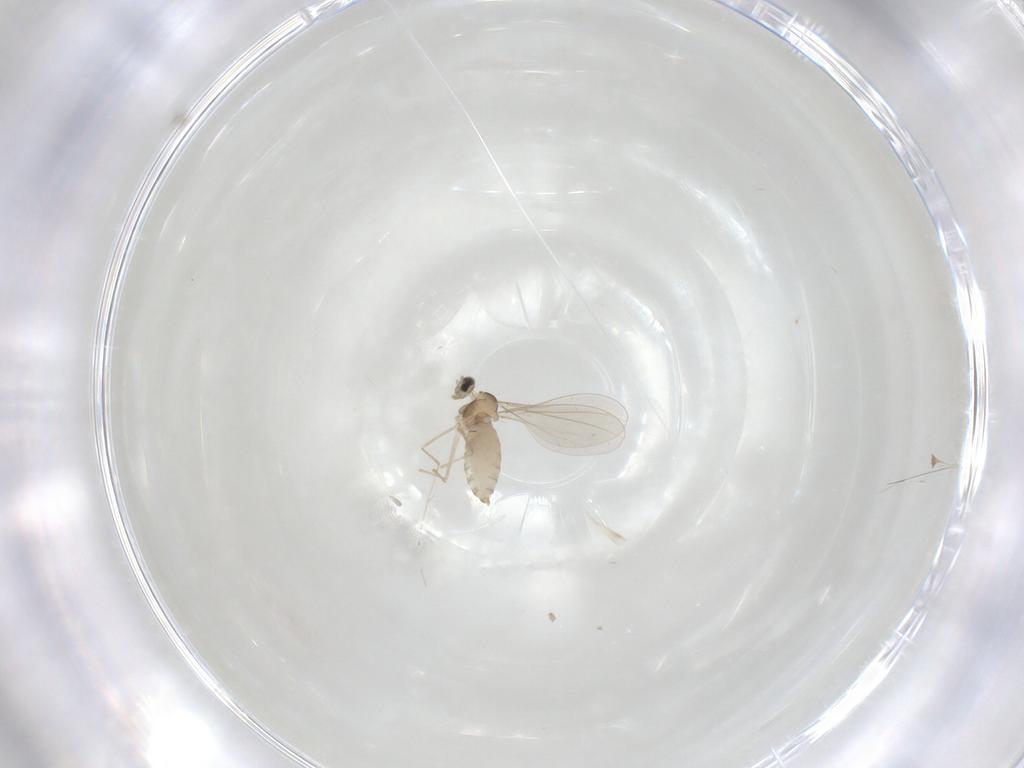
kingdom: Animalia
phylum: Arthropoda
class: Insecta
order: Diptera
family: Cecidomyiidae
